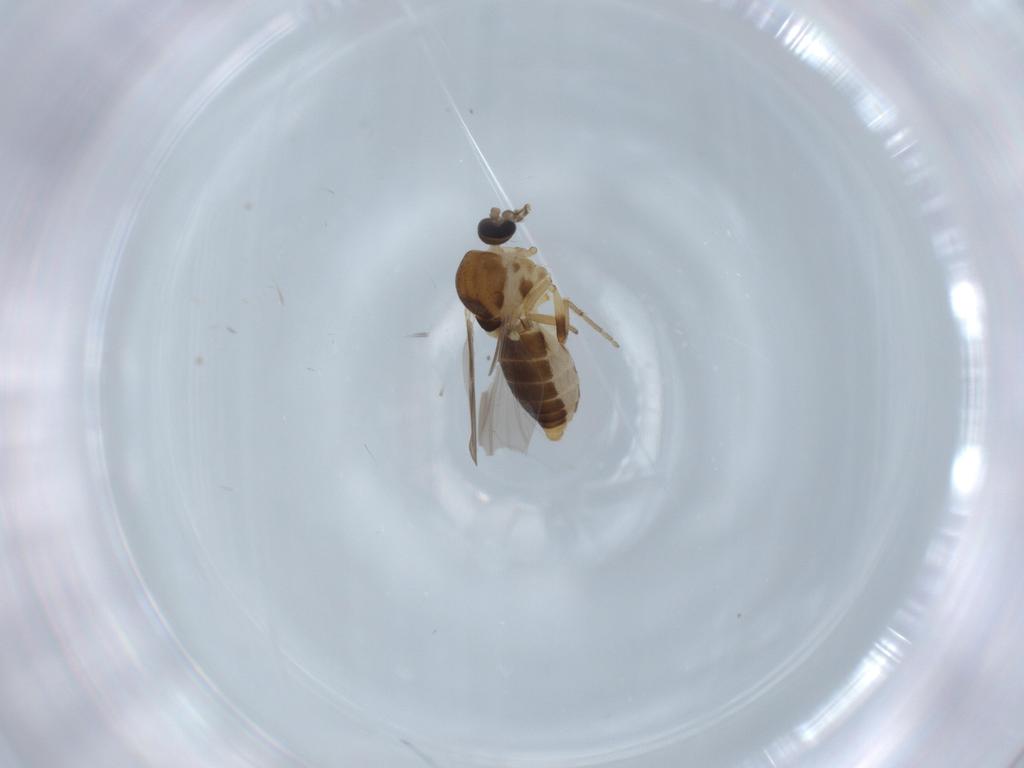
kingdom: Animalia
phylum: Arthropoda
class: Insecta
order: Diptera
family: Ceratopogonidae
